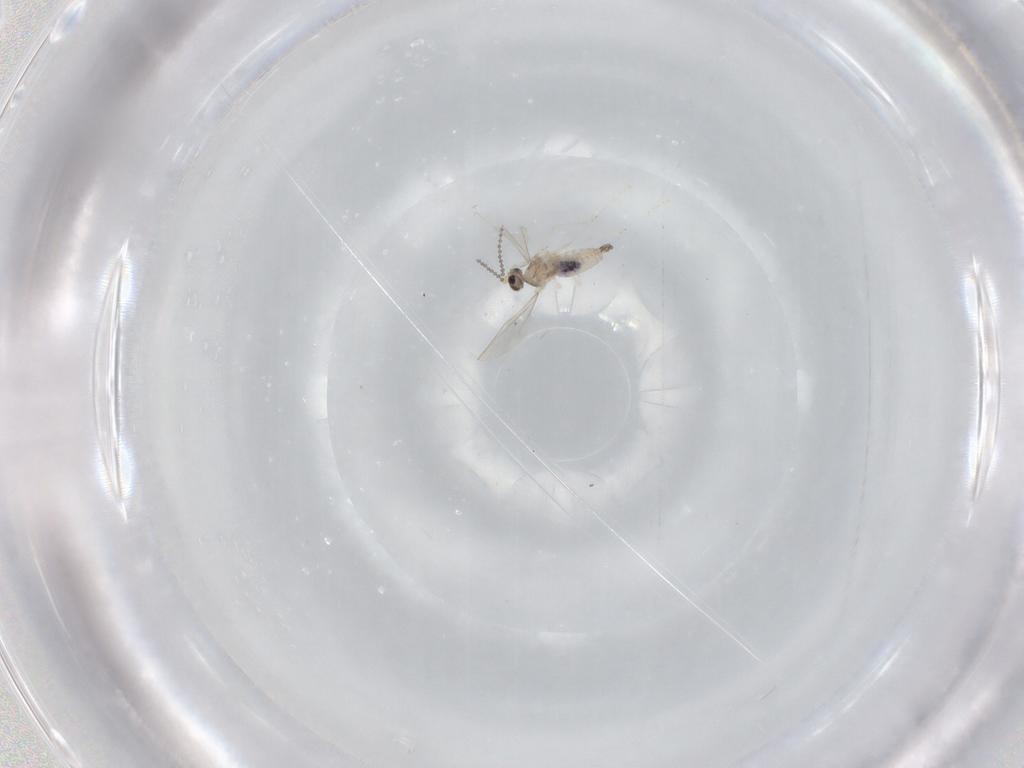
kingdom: Animalia
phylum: Arthropoda
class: Insecta
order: Diptera
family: Cecidomyiidae
